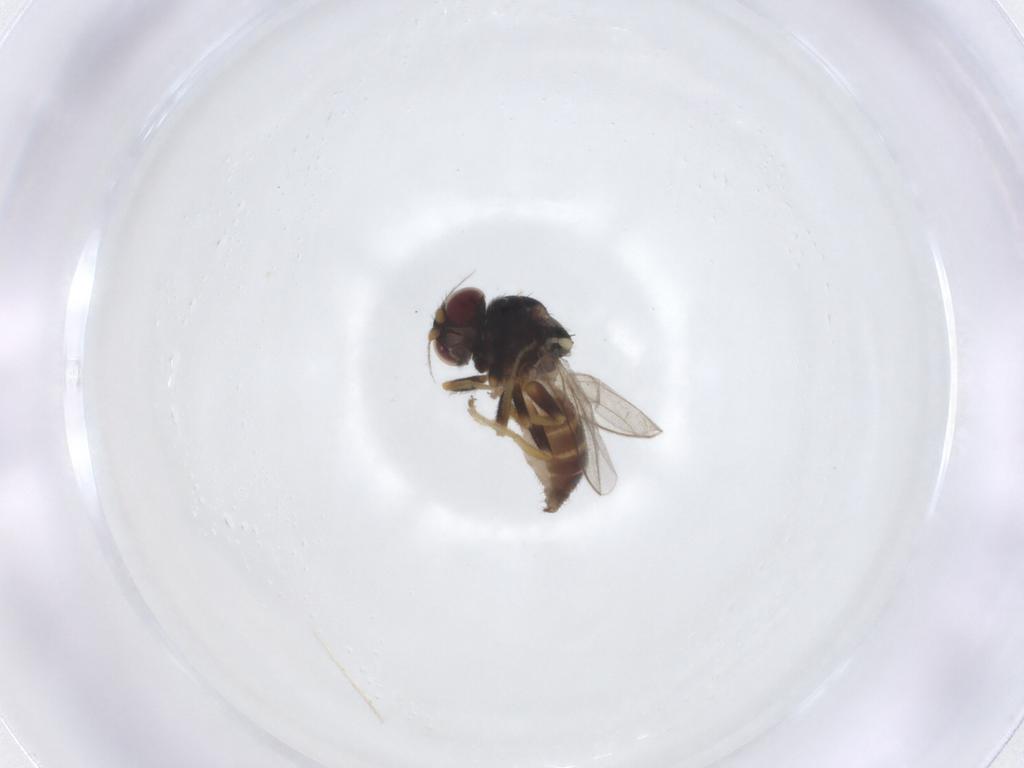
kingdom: Animalia
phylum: Arthropoda
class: Insecta
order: Diptera
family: Chloropidae
